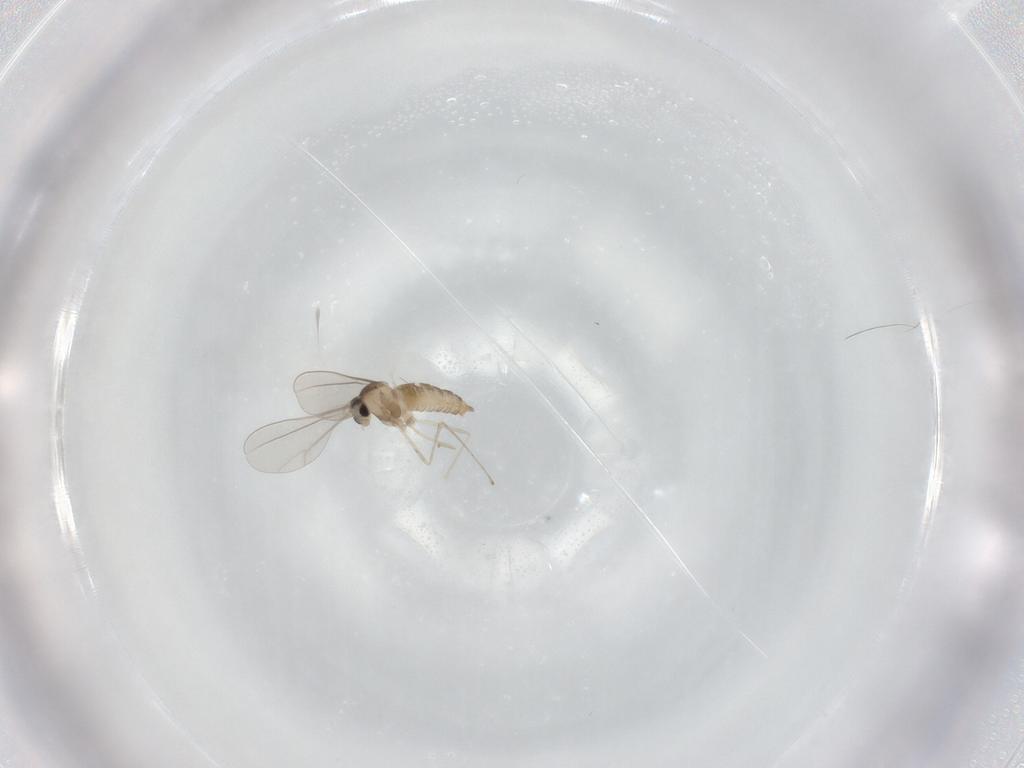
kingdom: Animalia
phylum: Arthropoda
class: Insecta
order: Diptera
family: Cecidomyiidae
